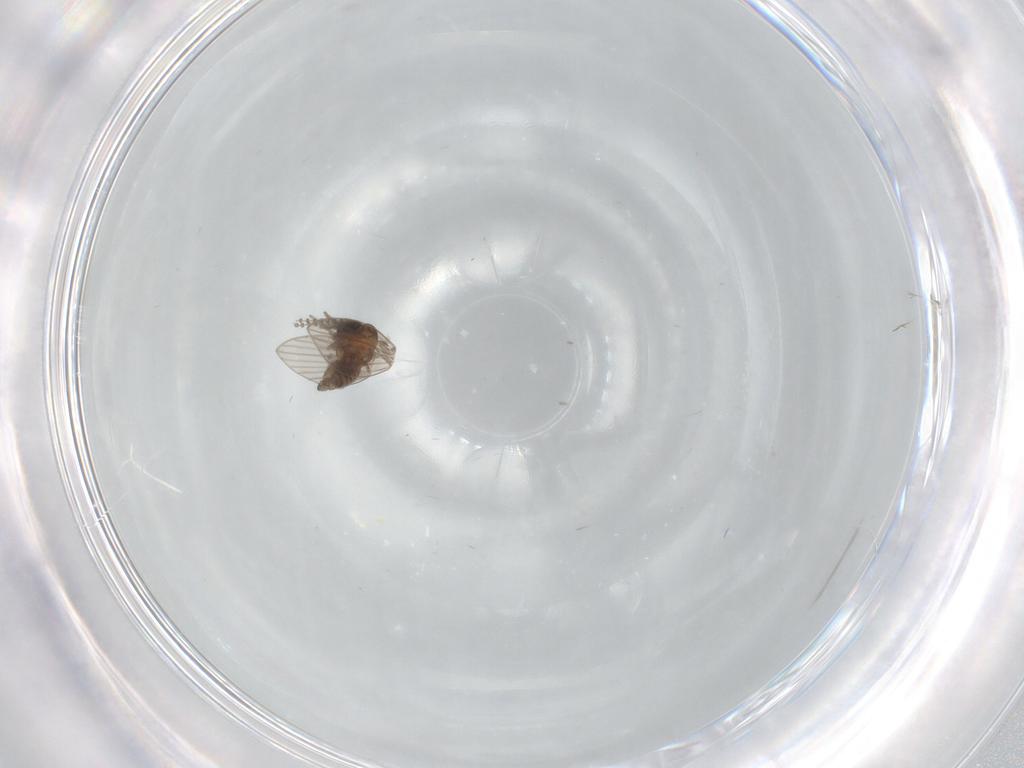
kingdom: Animalia
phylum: Arthropoda
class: Insecta
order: Diptera
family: Psychodidae
